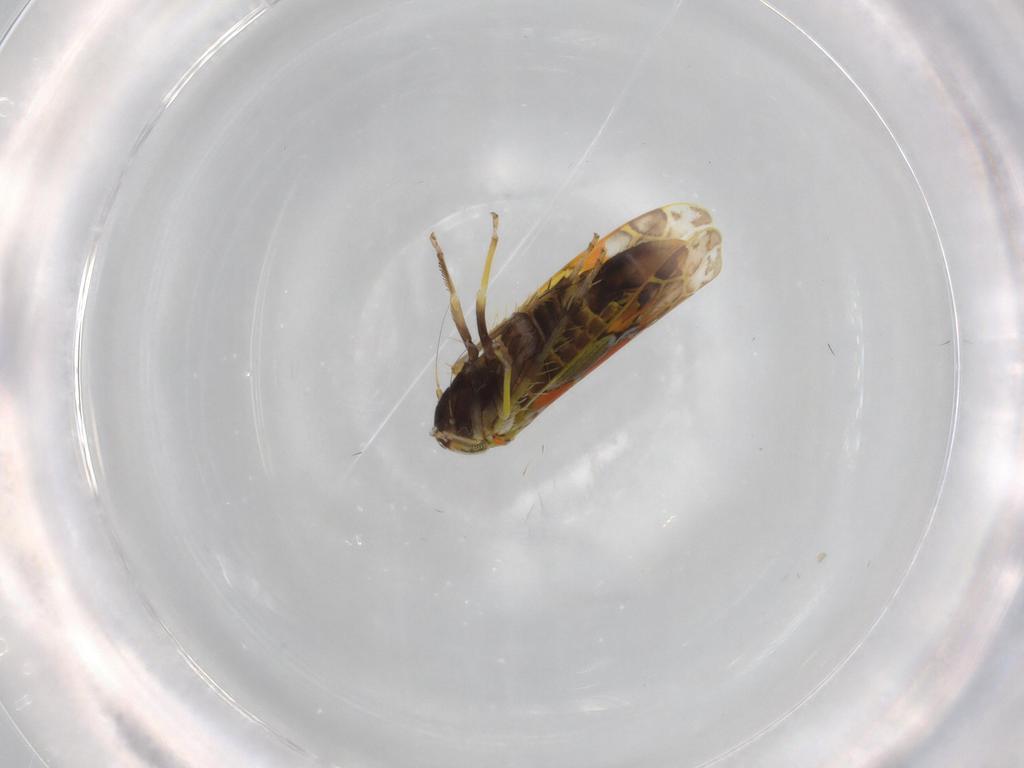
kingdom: Animalia
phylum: Arthropoda
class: Insecta
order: Hemiptera
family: Cicadellidae
